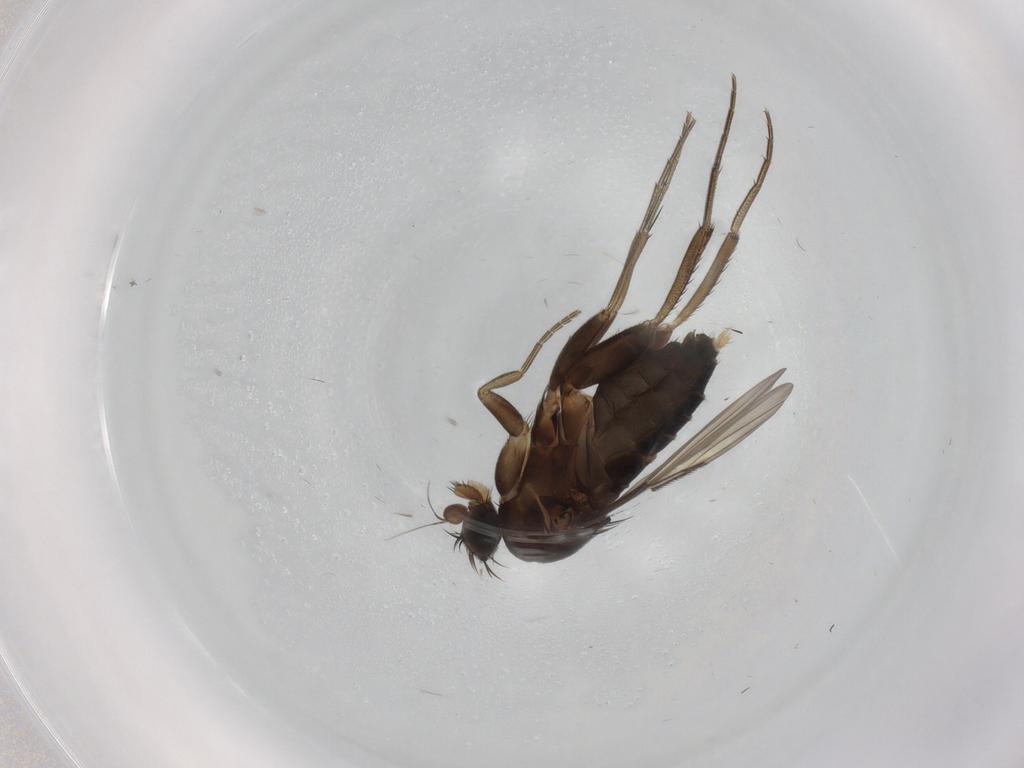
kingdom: Animalia
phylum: Arthropoda
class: Insecta
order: Diptera
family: Phoridae
